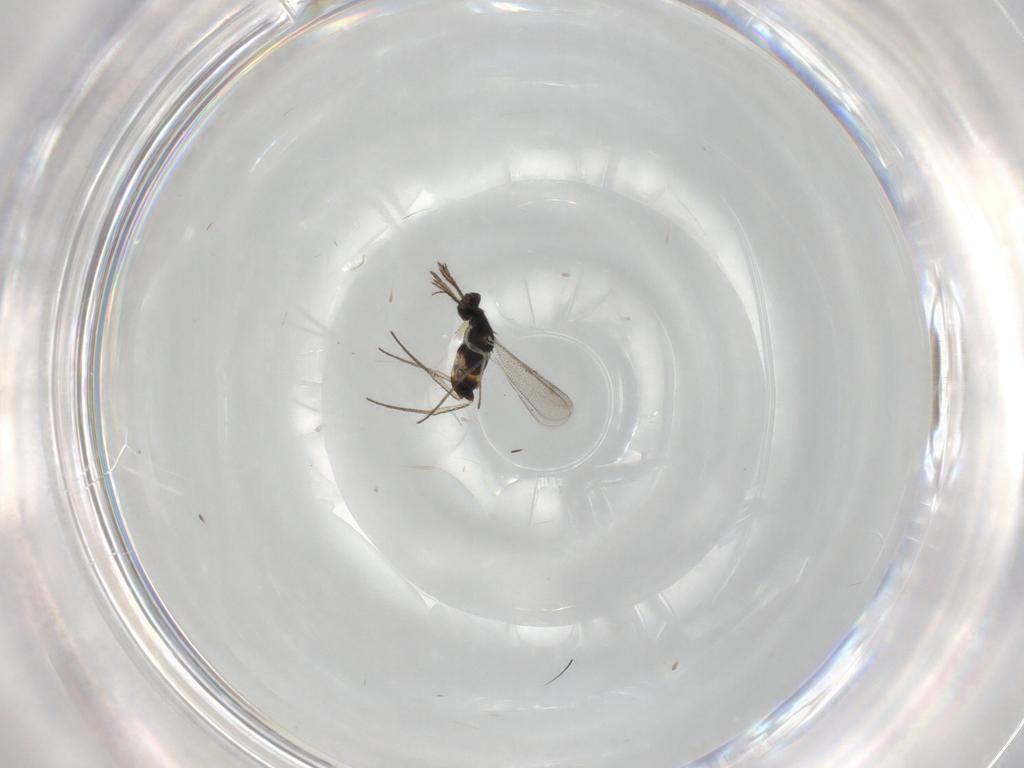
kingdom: Animalia
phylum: Arthropoda
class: Insecta
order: Hymenoptera
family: Eulophidae
